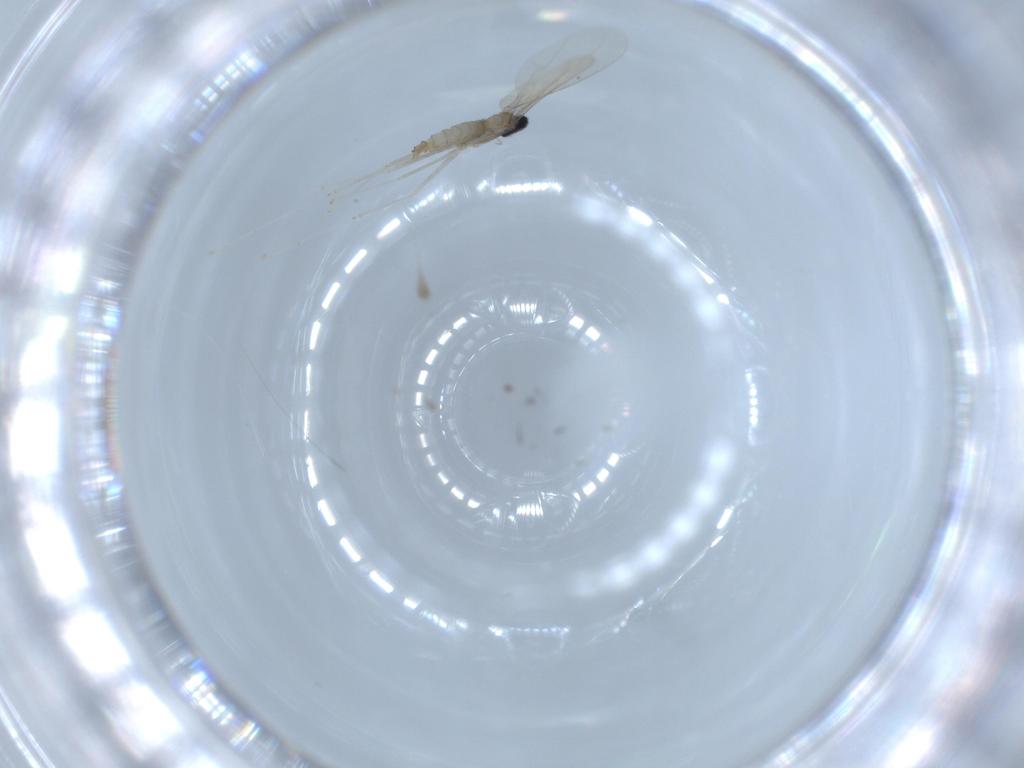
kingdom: Animalia
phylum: Arthropoda
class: Insecta
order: Diptera
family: Cecidomyiidae
